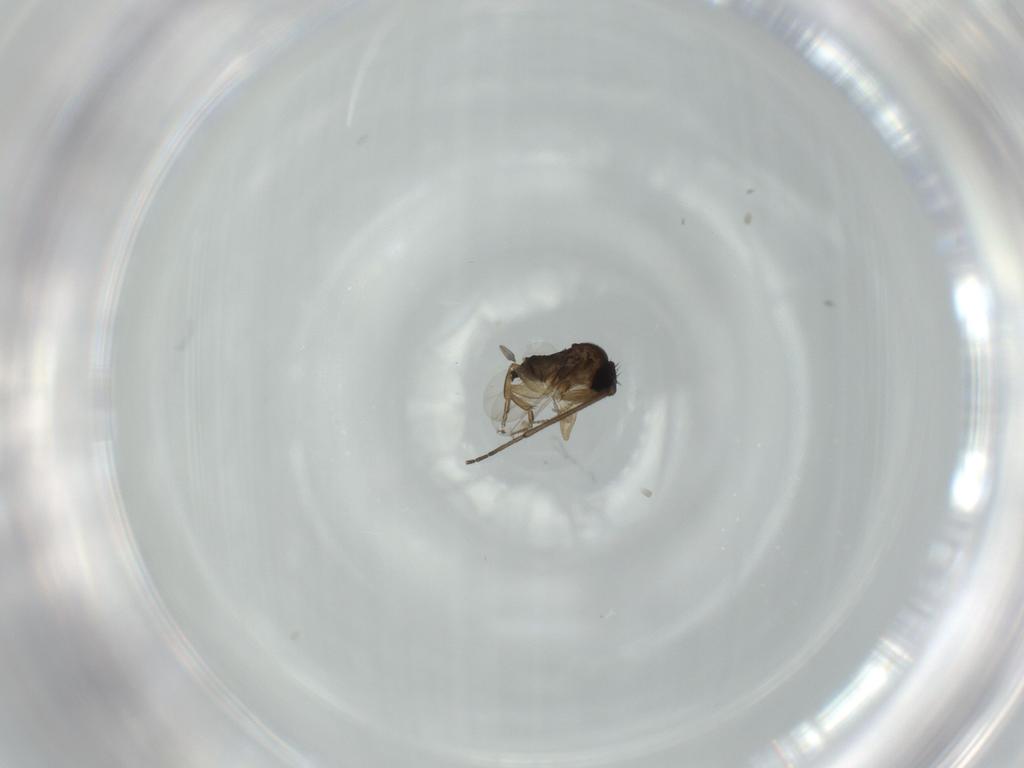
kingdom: Animalia
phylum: Arthropoda
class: Insecta
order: Diptera
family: Phoridae
